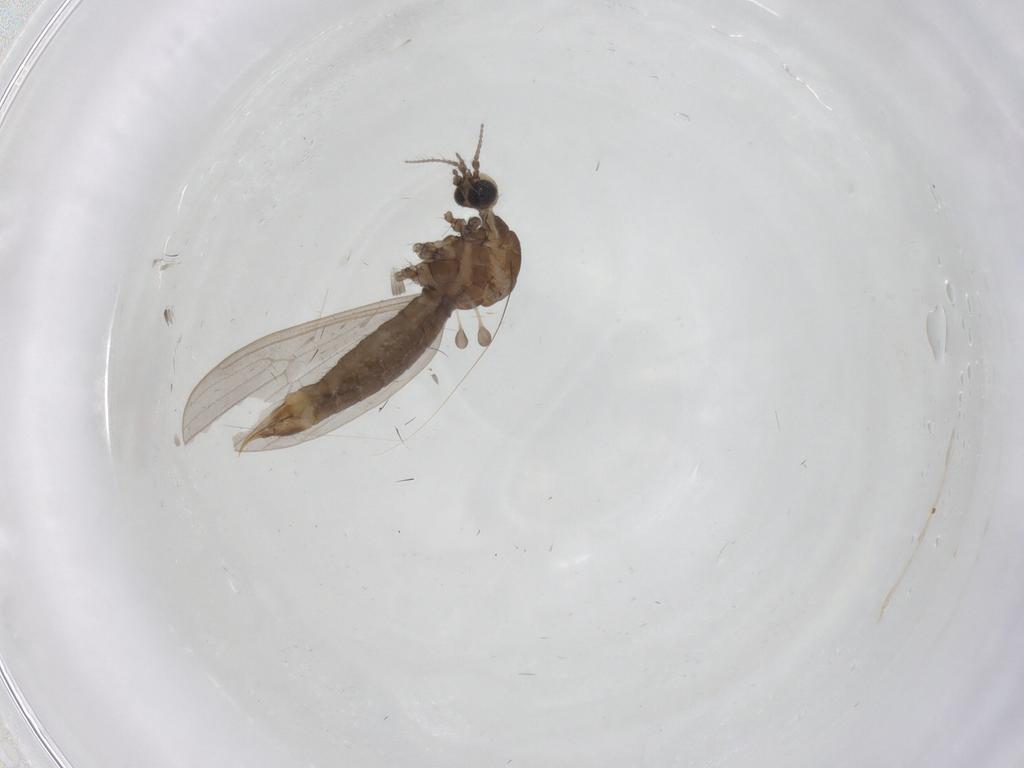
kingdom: Animalia
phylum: Arthropoda
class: Insecta
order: Diptera
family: Limoniidae
